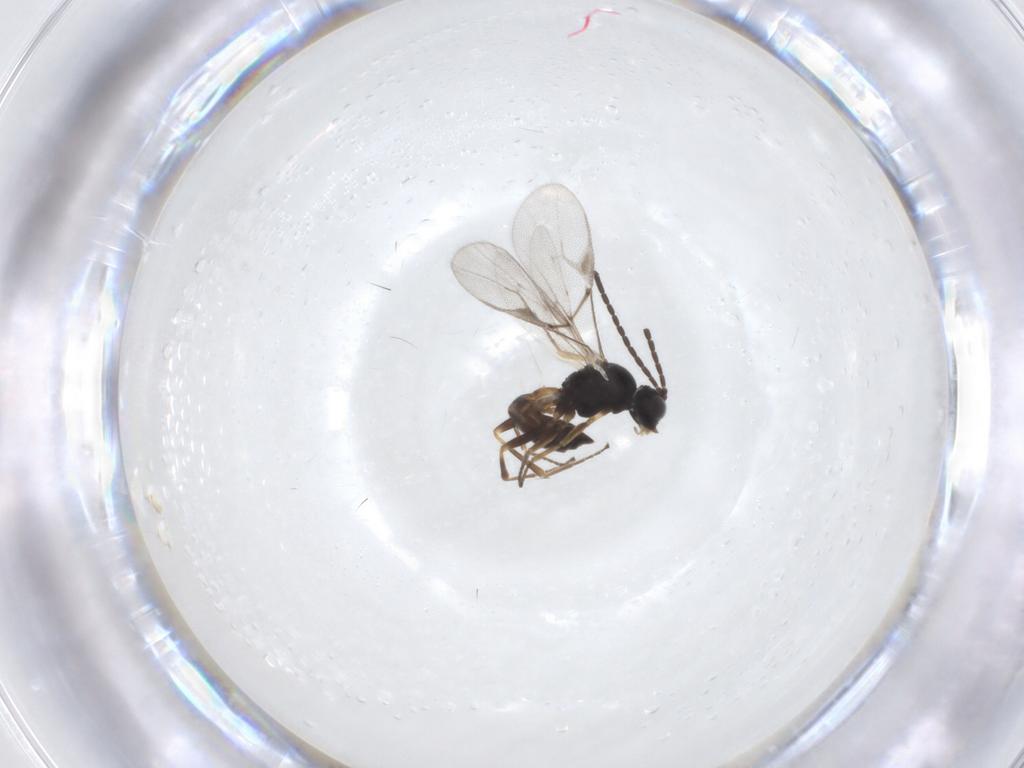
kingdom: Animalia
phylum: Arthropoda
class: Insecta
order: Hymenoptera
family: Braconidae
